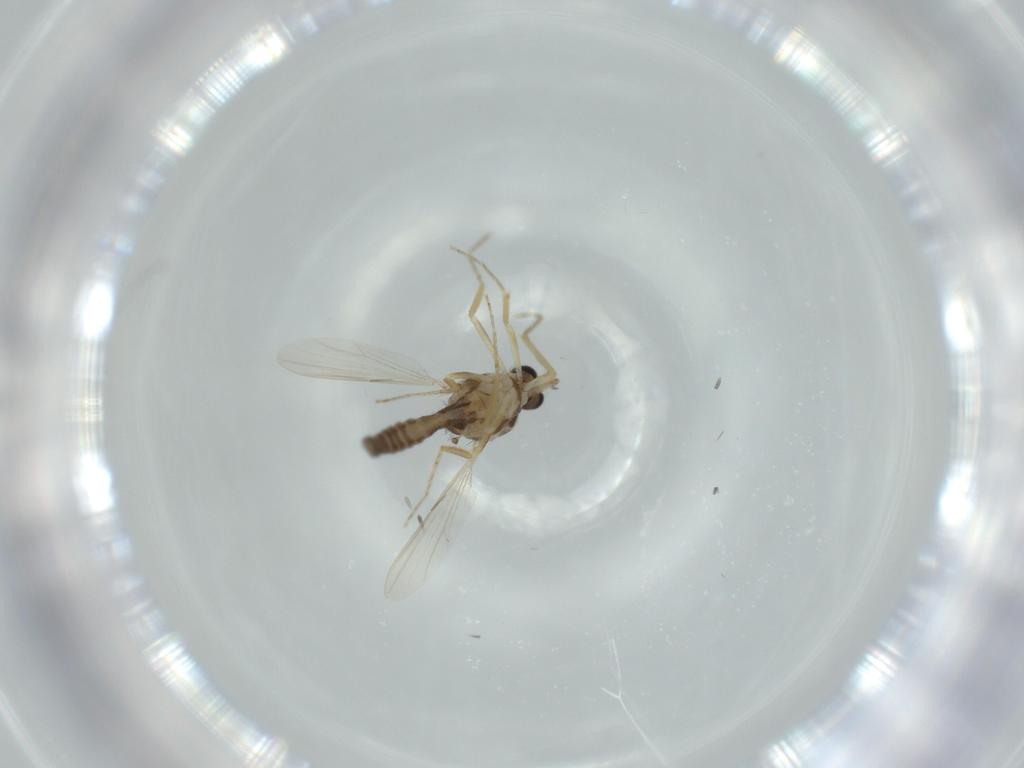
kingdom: Animalia
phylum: Arthropoda
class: Insecta
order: Diptera
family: Ceratopogonidae
